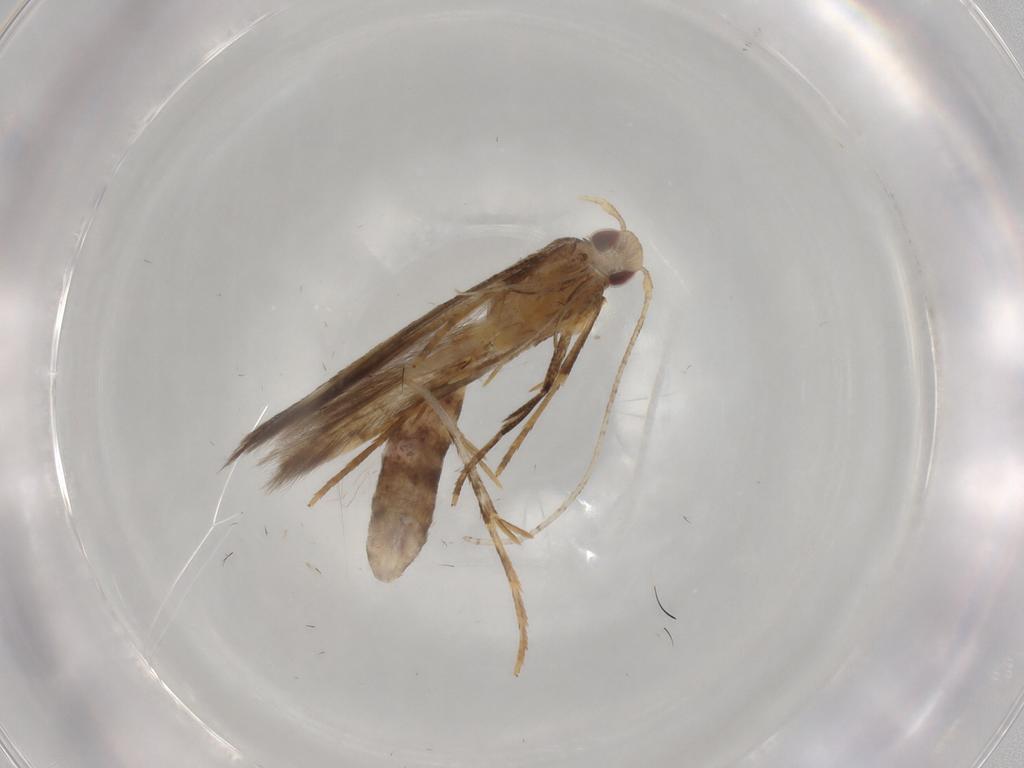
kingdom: Animalia
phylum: Arthropoda
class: Insecta
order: Lepidoptera
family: Cosmopterigidae
